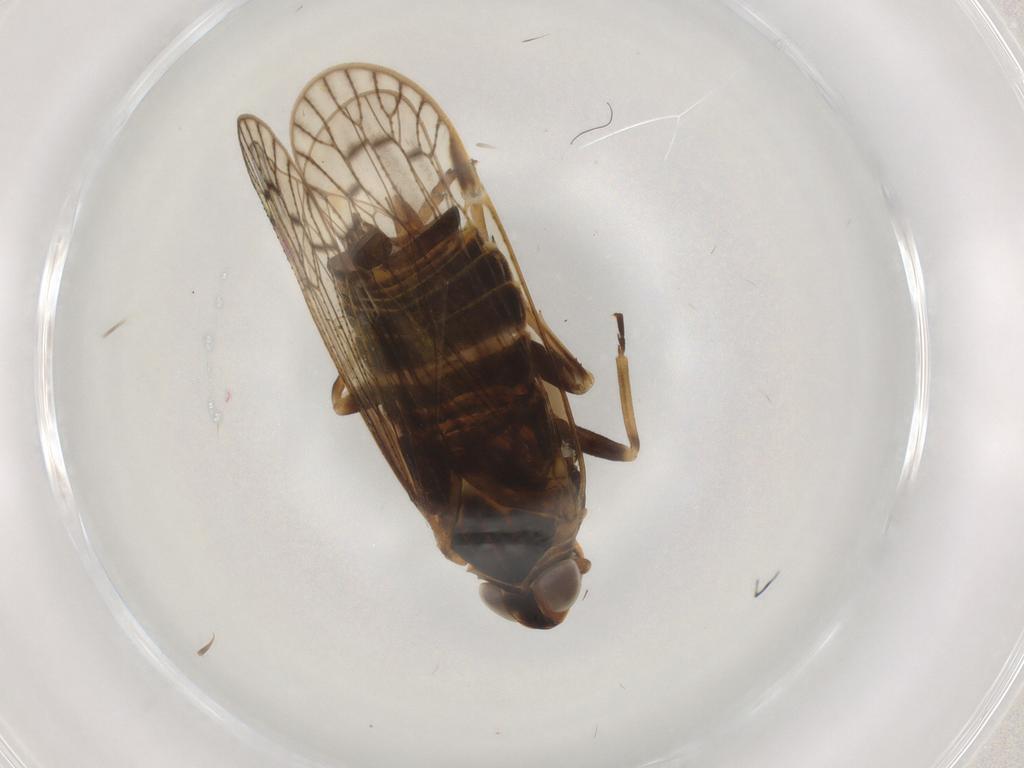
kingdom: Animalia
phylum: Arthropoda
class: Insecta
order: Hemiptera
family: Cixiidae
